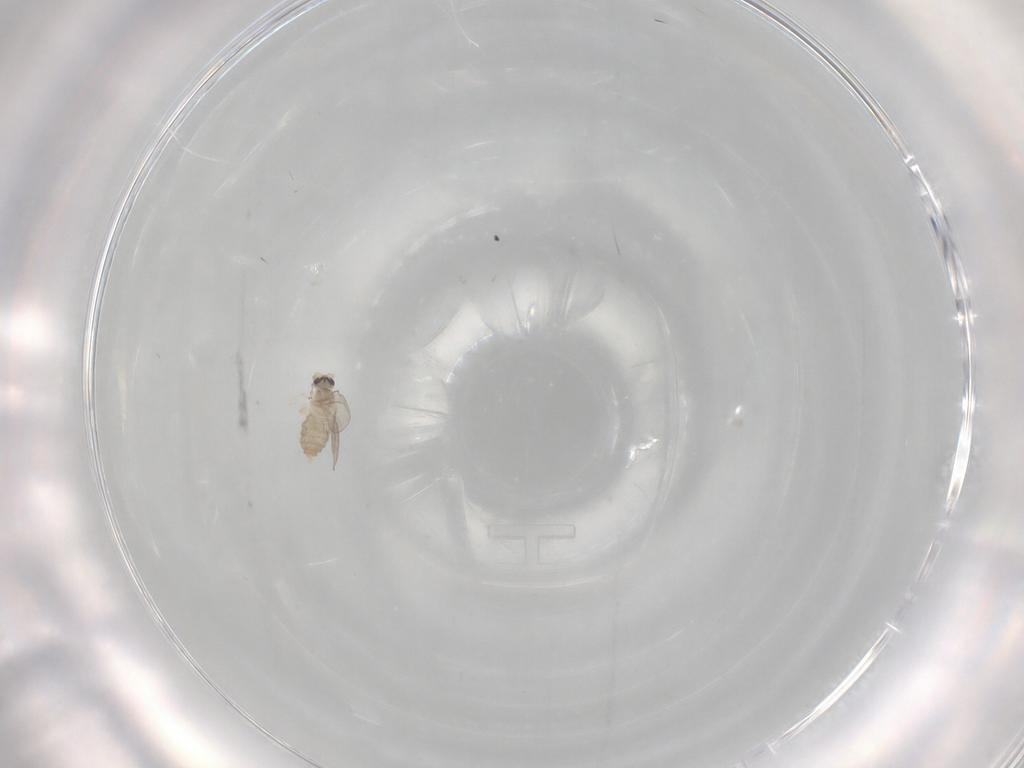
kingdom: Animalia
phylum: Arthropoda
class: Insecta
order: Diptera
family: Cecidomyiidae
